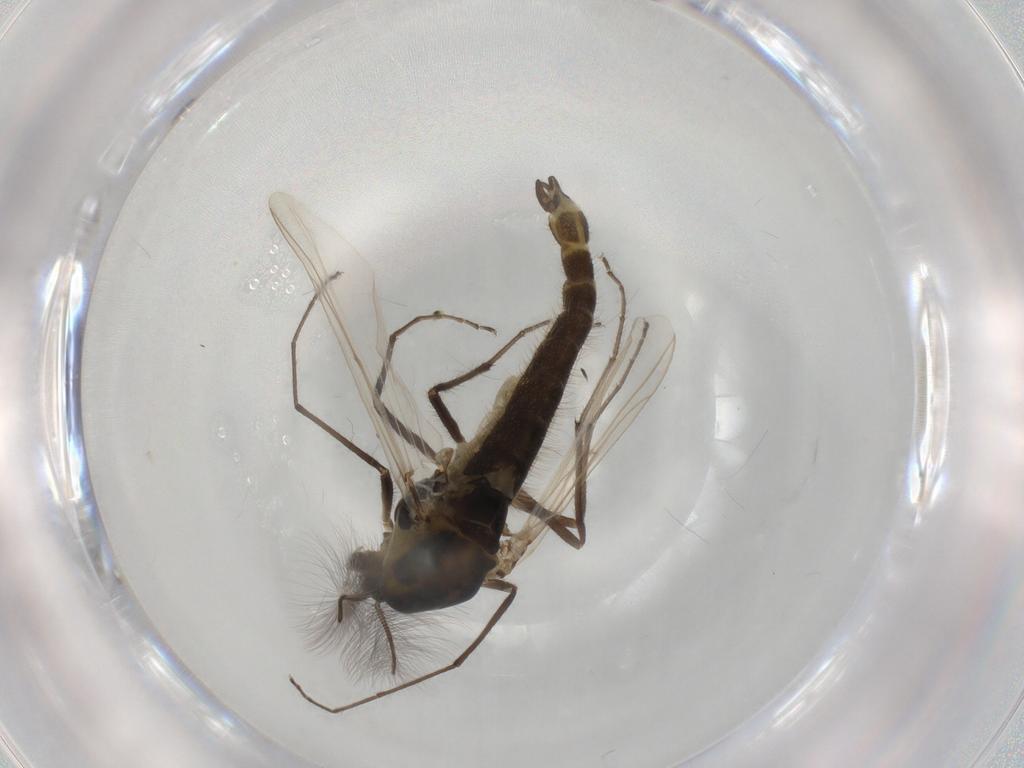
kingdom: Animalia
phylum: Arthropoda
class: Insecta
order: Diptera
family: Muscidae
